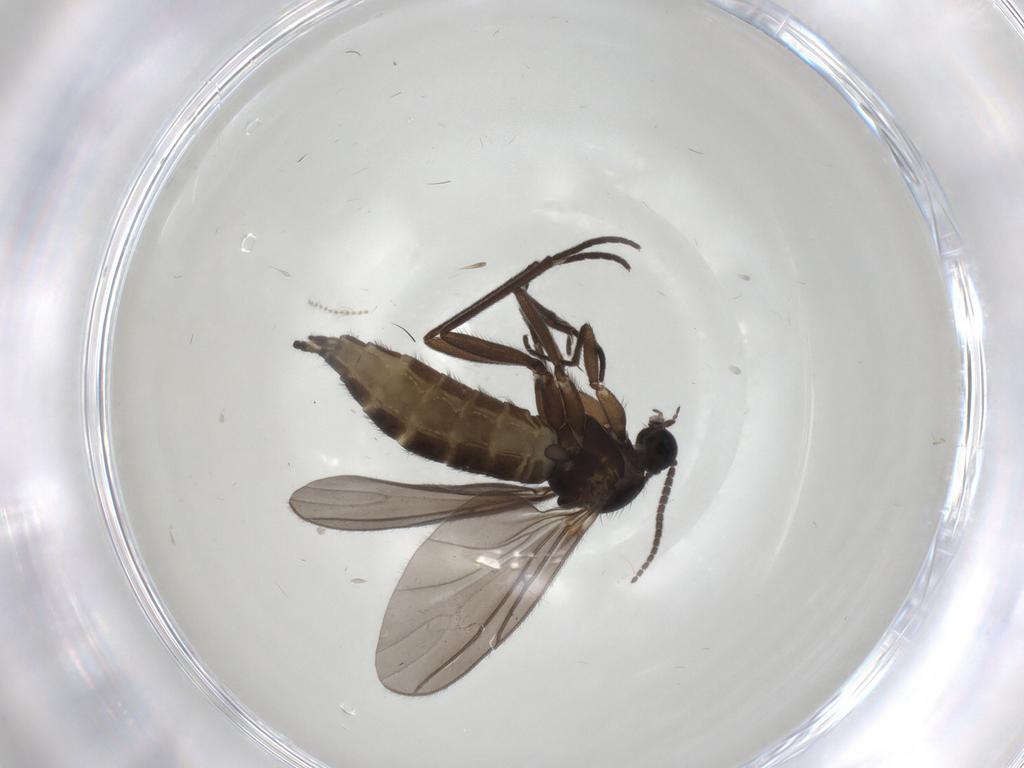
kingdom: Animalia
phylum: Arthropoda
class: Insecta
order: Diptera
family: Sciaridae
